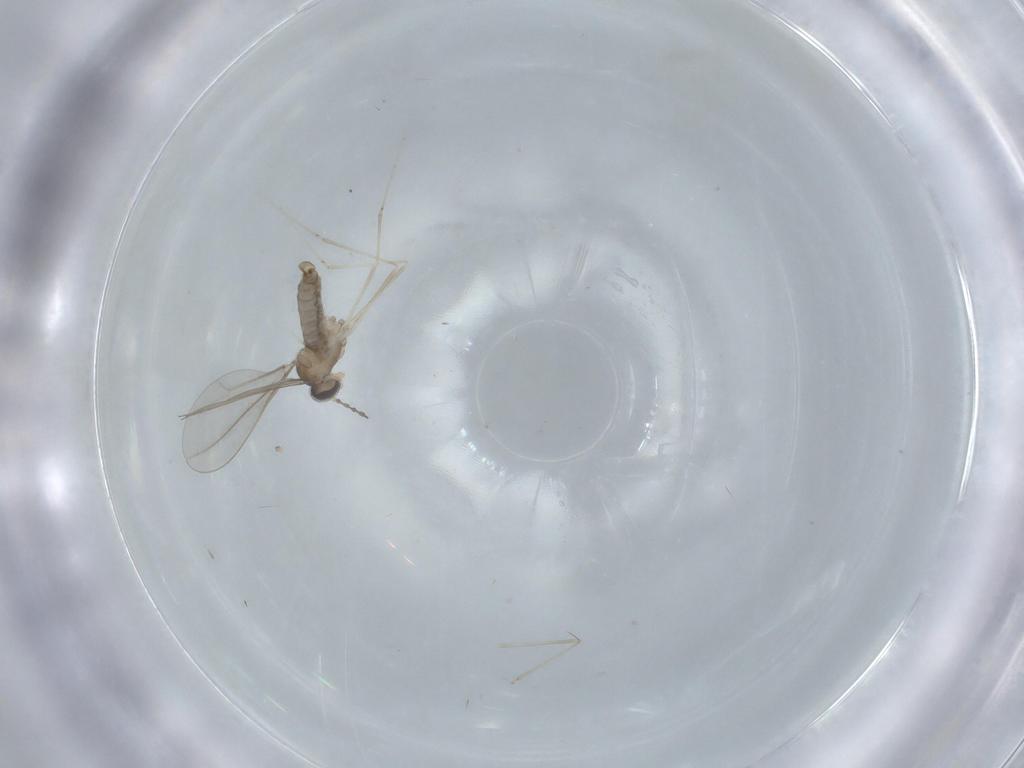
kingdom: Animalia
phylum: Arthropoda
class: Insecta
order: Diptera
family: Cecidomyiidae
